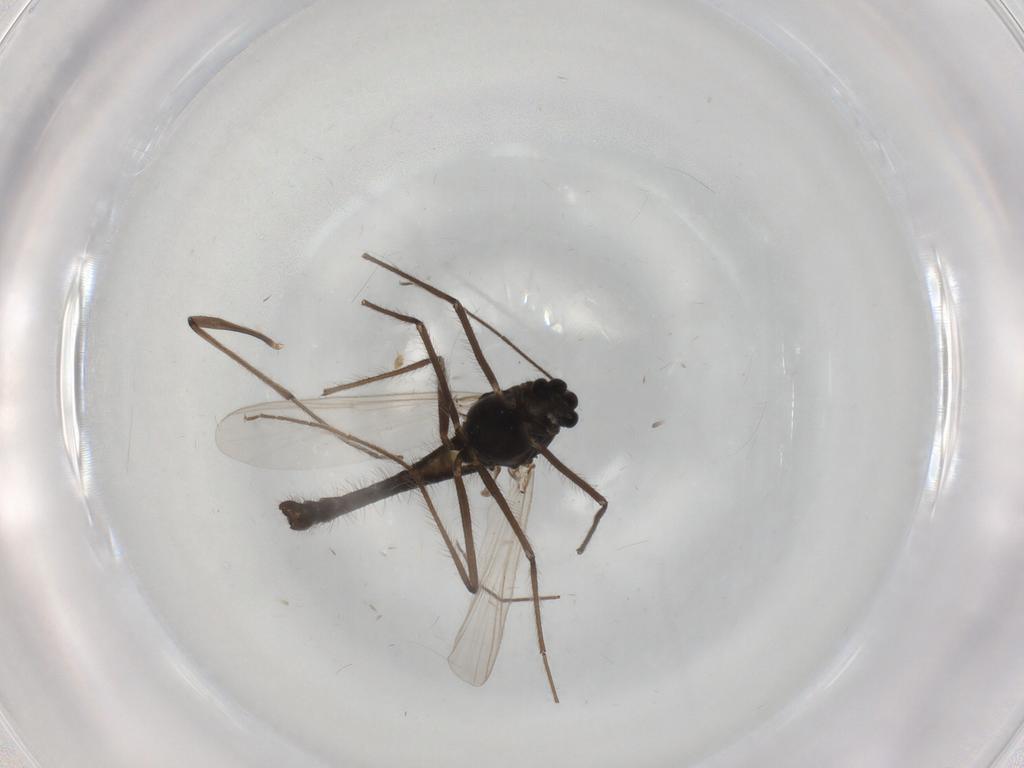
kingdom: Animalia
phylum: Arthropoda
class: Insecta
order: Diptera
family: Chironomidae
